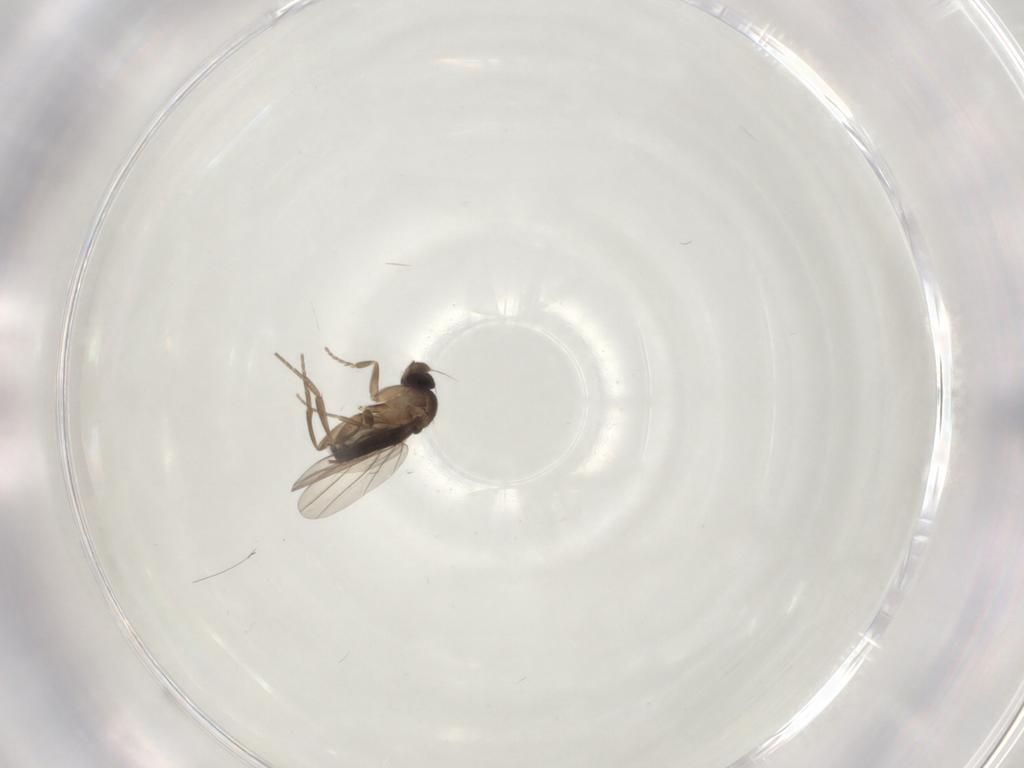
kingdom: Animalia
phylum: Arthropoda
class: Insecta
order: Diptera
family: Phoridae
